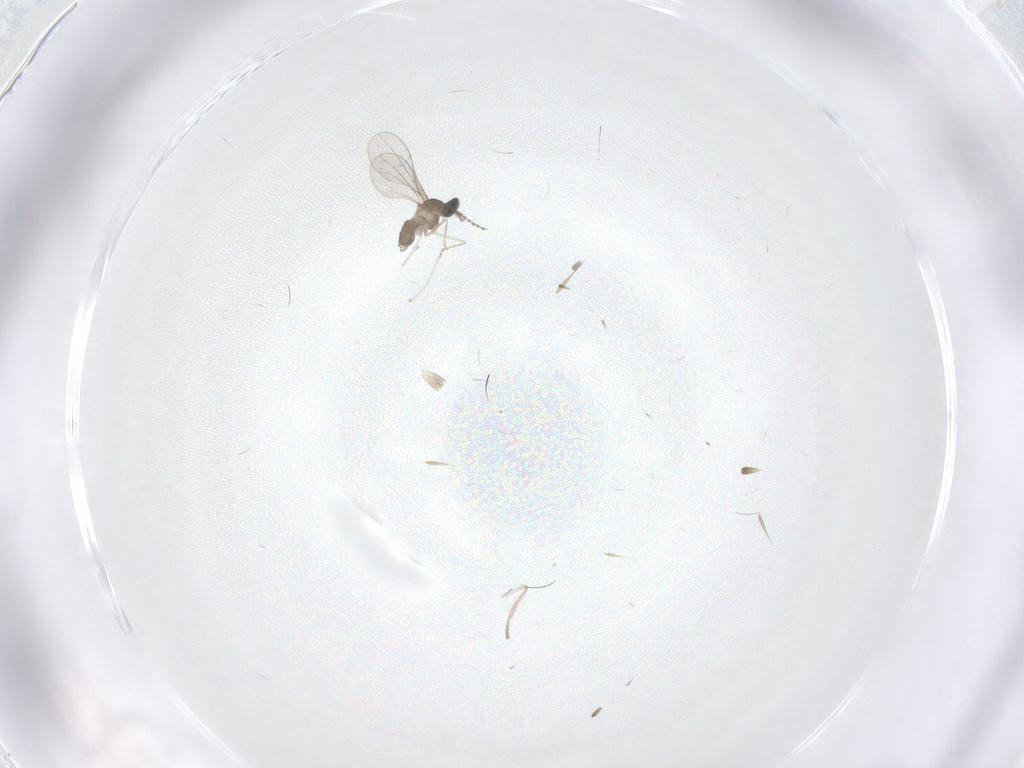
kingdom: Animalia
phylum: Arthropoda
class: Insecta
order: Diptera
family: Cecidomyiidae
